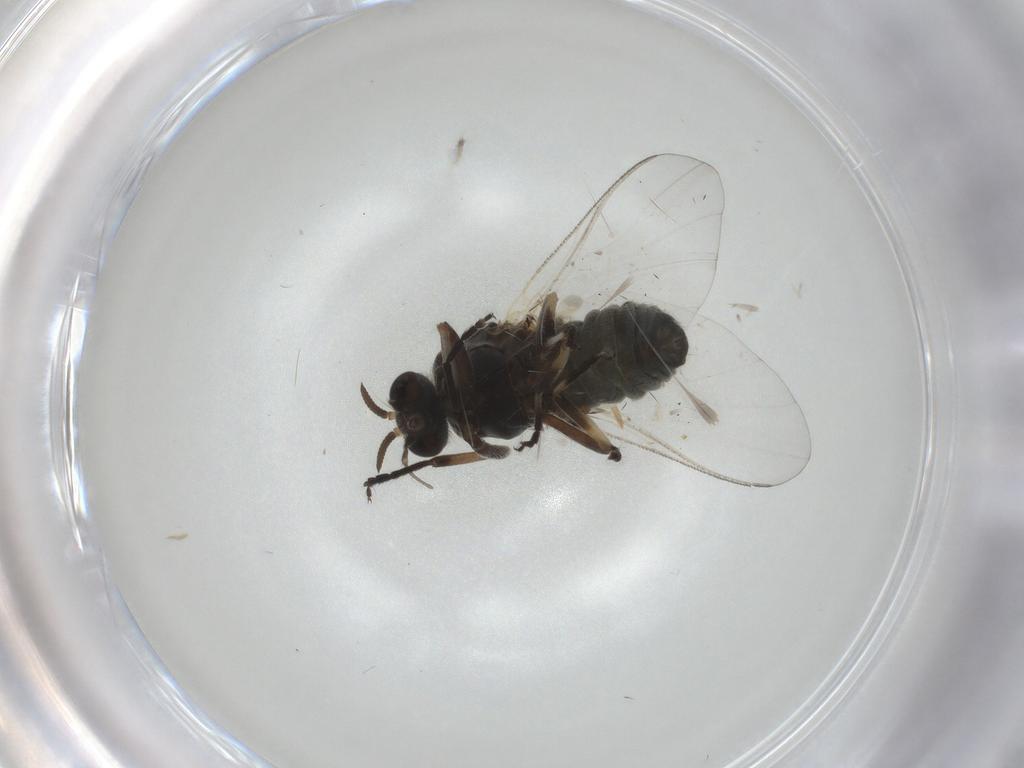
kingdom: Animalia
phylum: Arthropoda
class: Insecta
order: Diptera
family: Simuliidae
